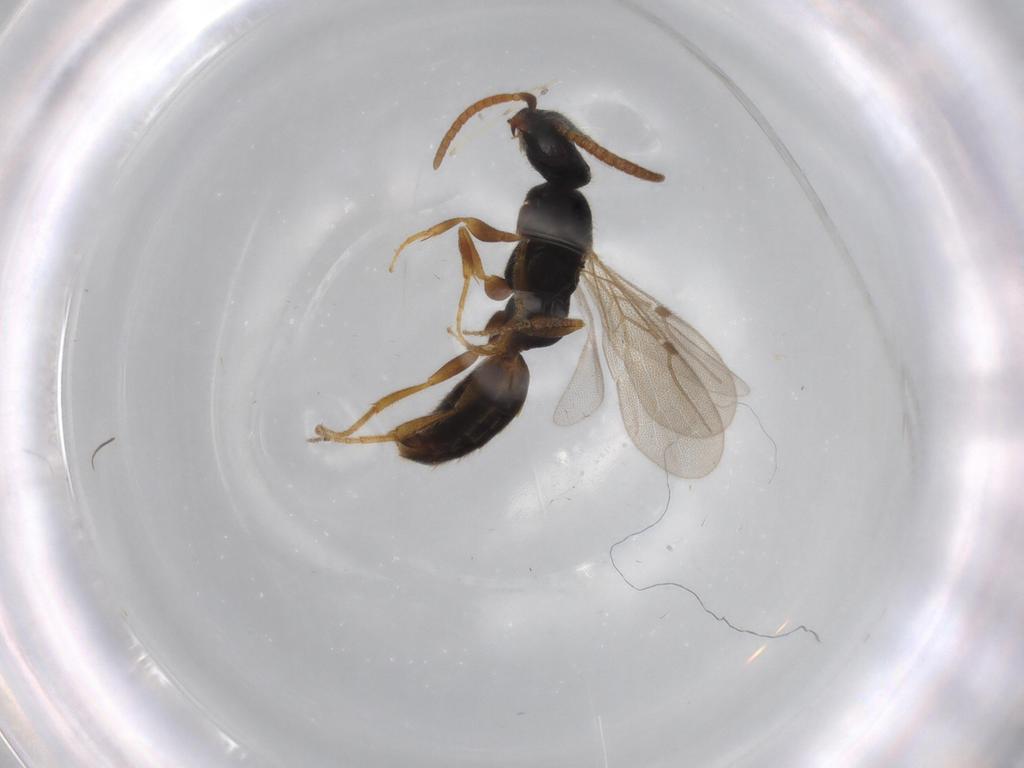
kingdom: Animalia
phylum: Arthropoda
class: Insecta
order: Hymenoptera
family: Bethylidae
